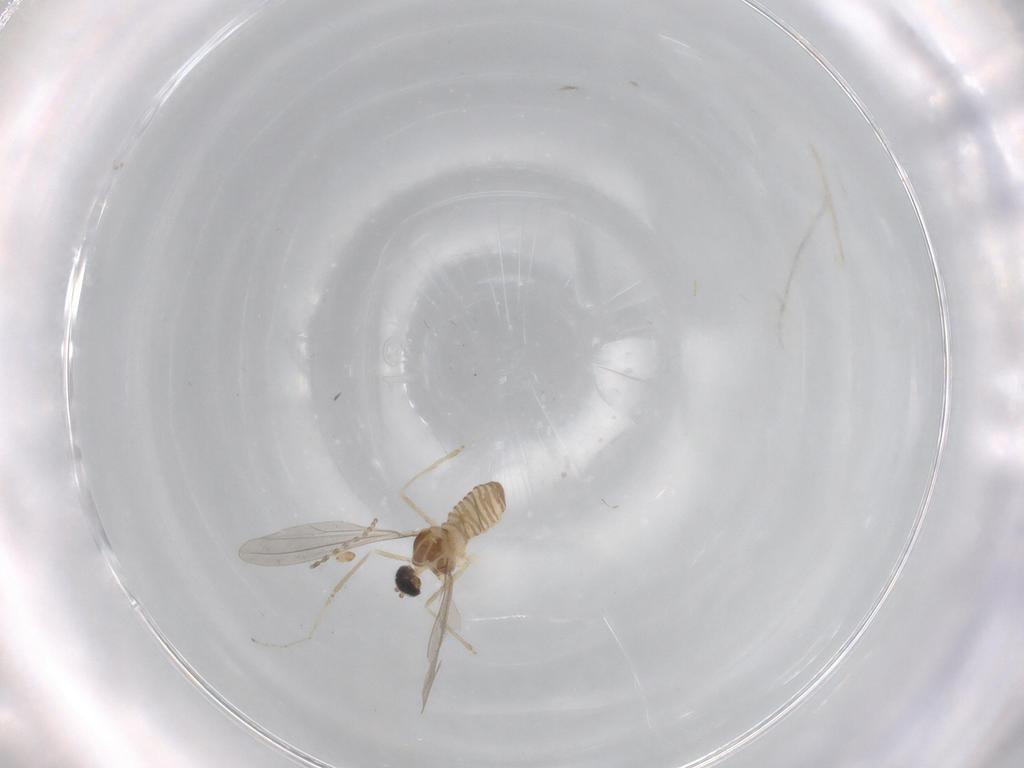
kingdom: Animalia
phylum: Arthropoda
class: Insecta
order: Diptera
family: Cecidomyiidae
